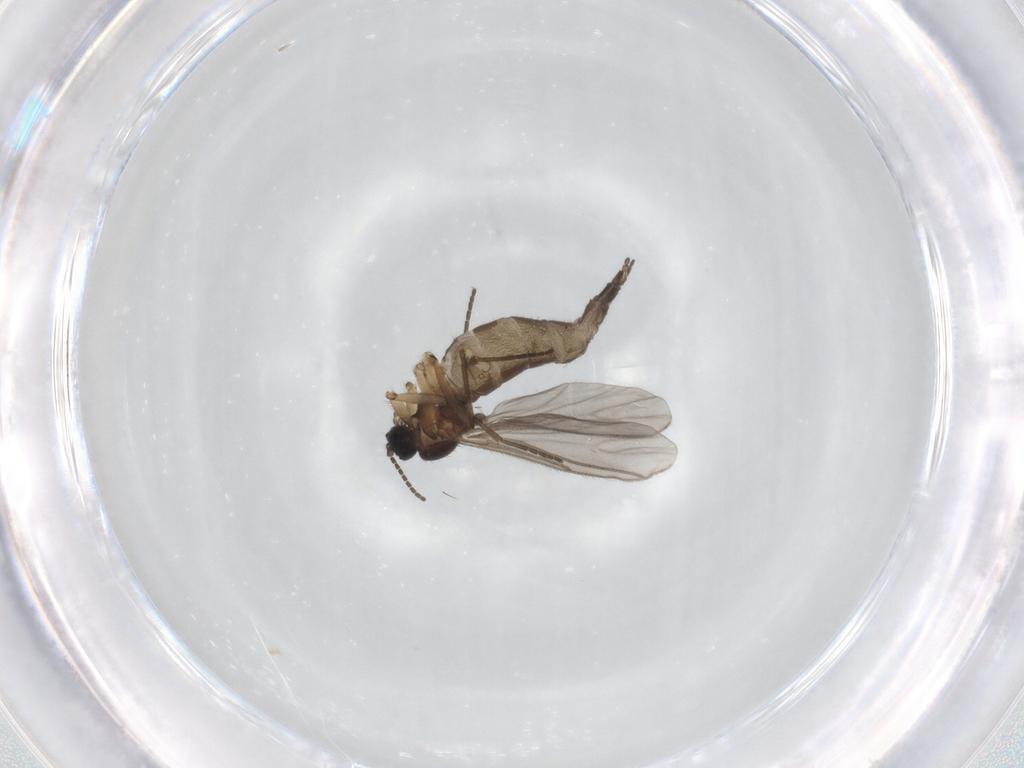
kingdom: Animalia
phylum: Arthropoda
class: Insecta
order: Diptera
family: Sciaridae
